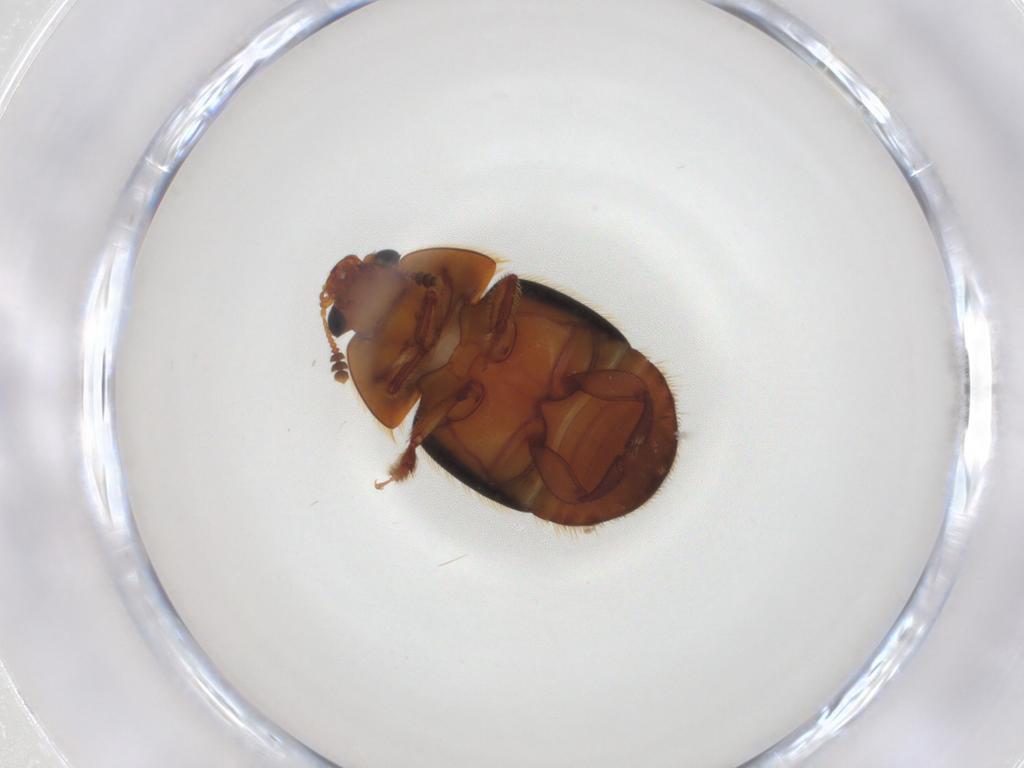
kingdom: Animalia
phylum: Arthropoda
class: Insecta
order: Coleoptera
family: Nitidulidae
